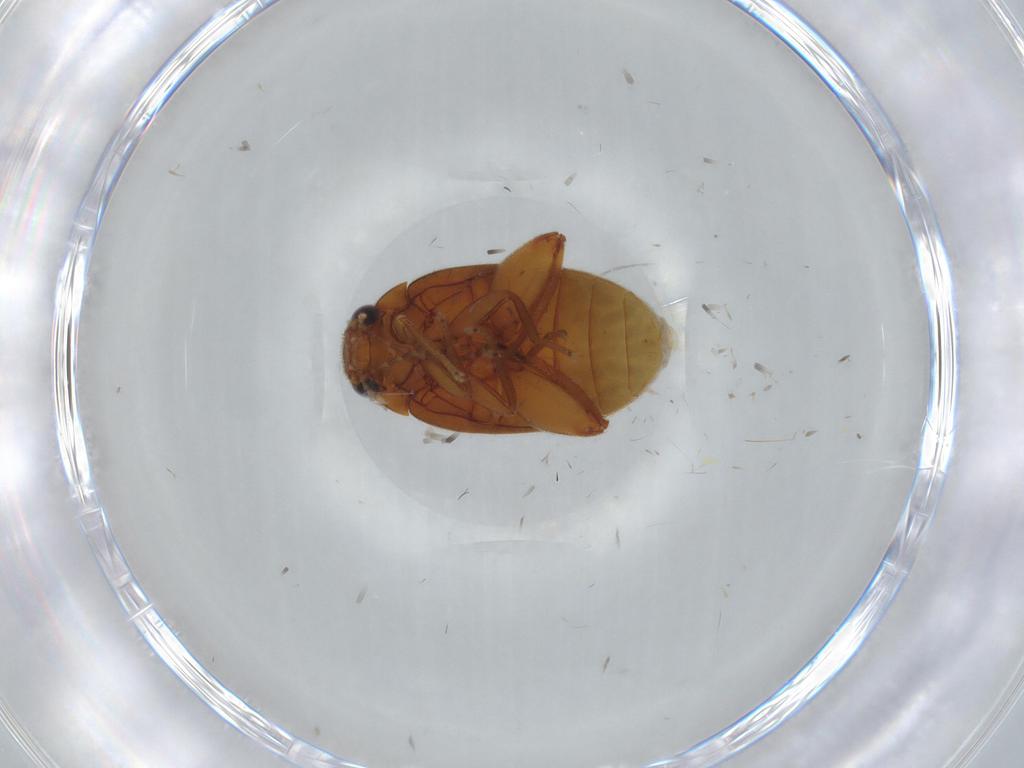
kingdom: Animalia
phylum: Arthropoda
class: Insecta
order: Coleoptera
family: Scirtidae
